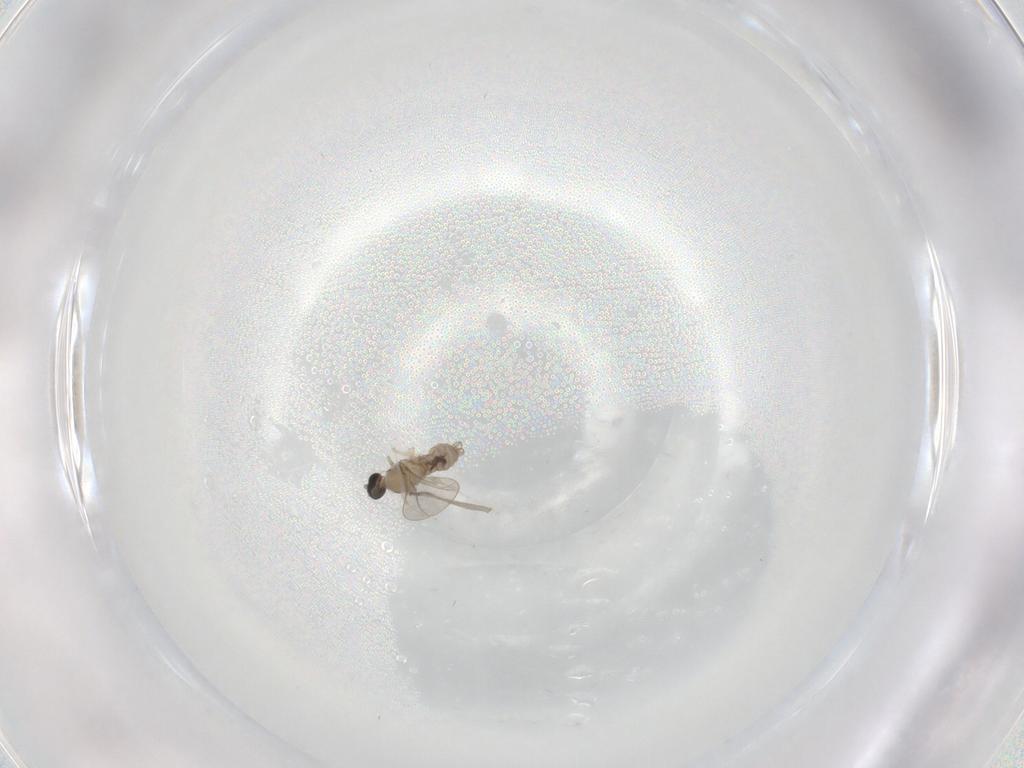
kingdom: Animalia
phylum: Arthropoda
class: Insecta
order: Diptera
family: Cecidomyiidae
